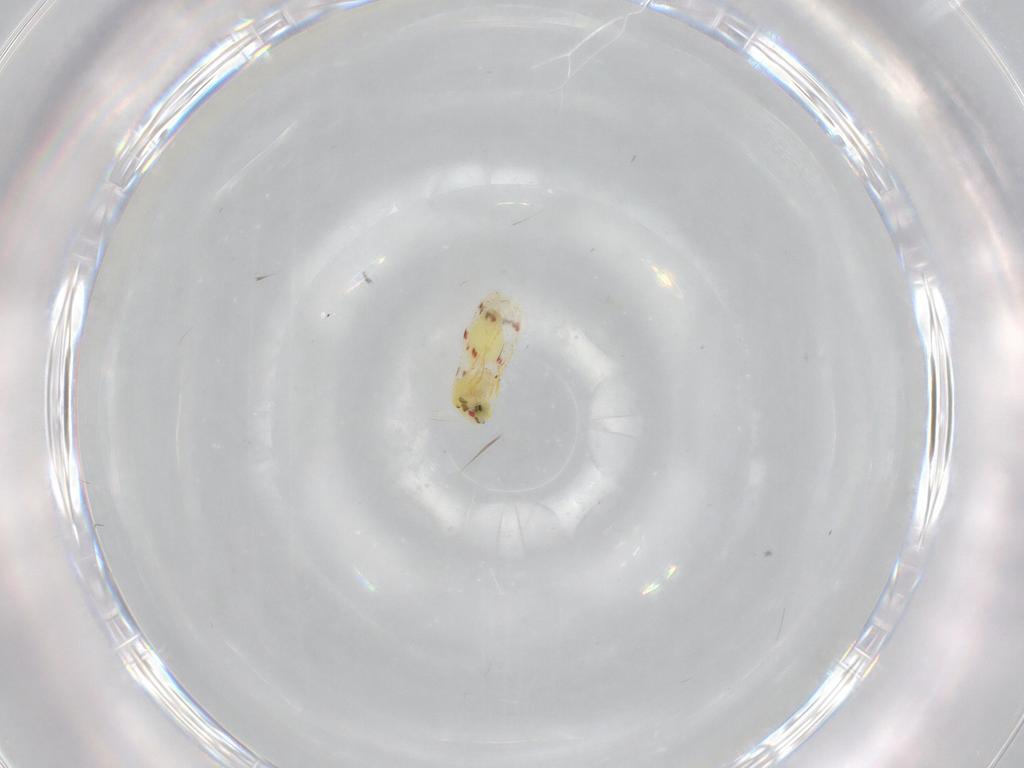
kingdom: Animalia
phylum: Arthropoda
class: Insecta
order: Hemiptera
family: Aleyrodidae
